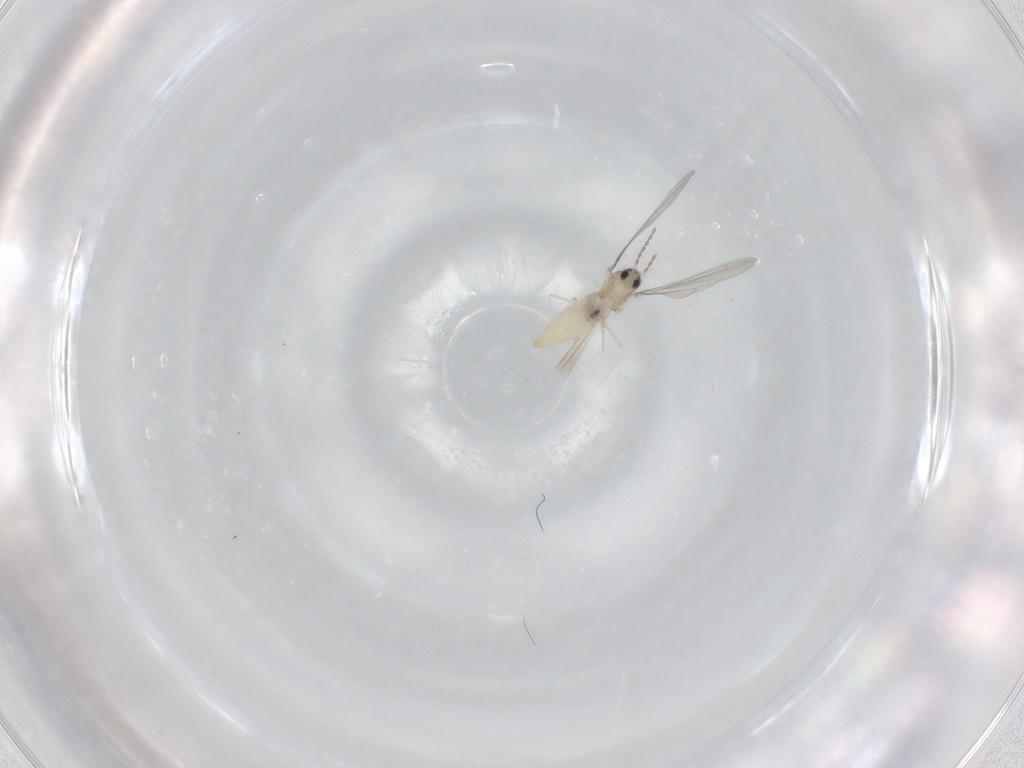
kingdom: Animalia
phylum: Arthropoda
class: Insecta
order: Diptera
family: Cecidomyiidae
